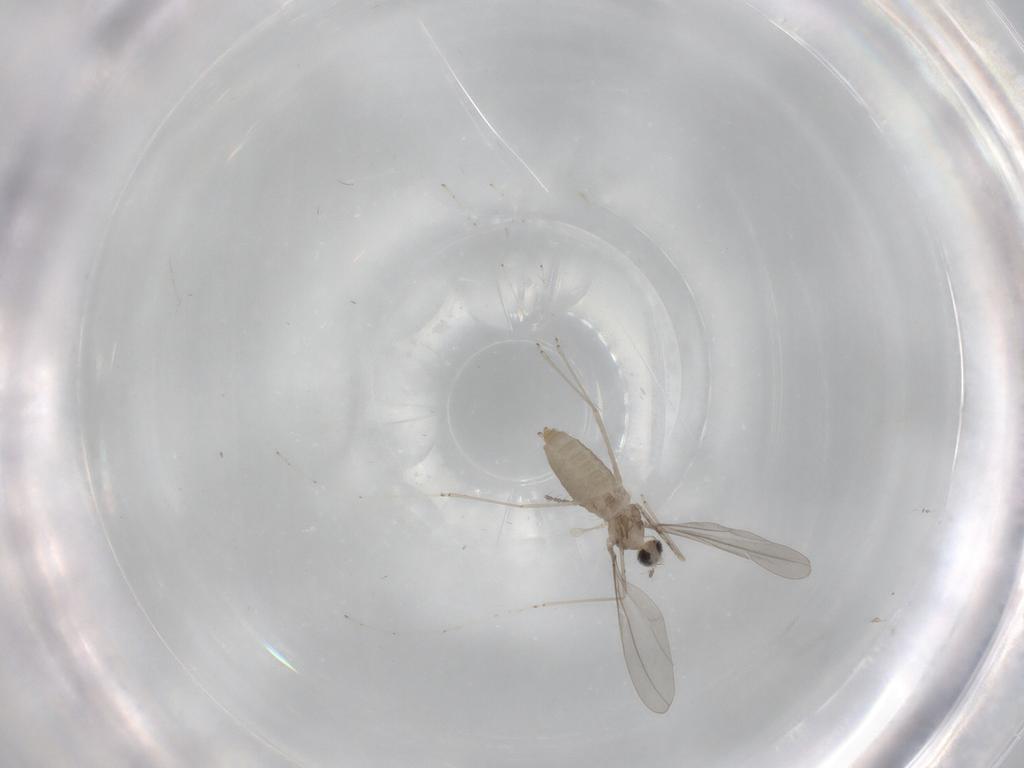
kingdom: Animalia
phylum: Arthropoda
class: Insecta
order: Diptera
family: Cecidomyiidae
